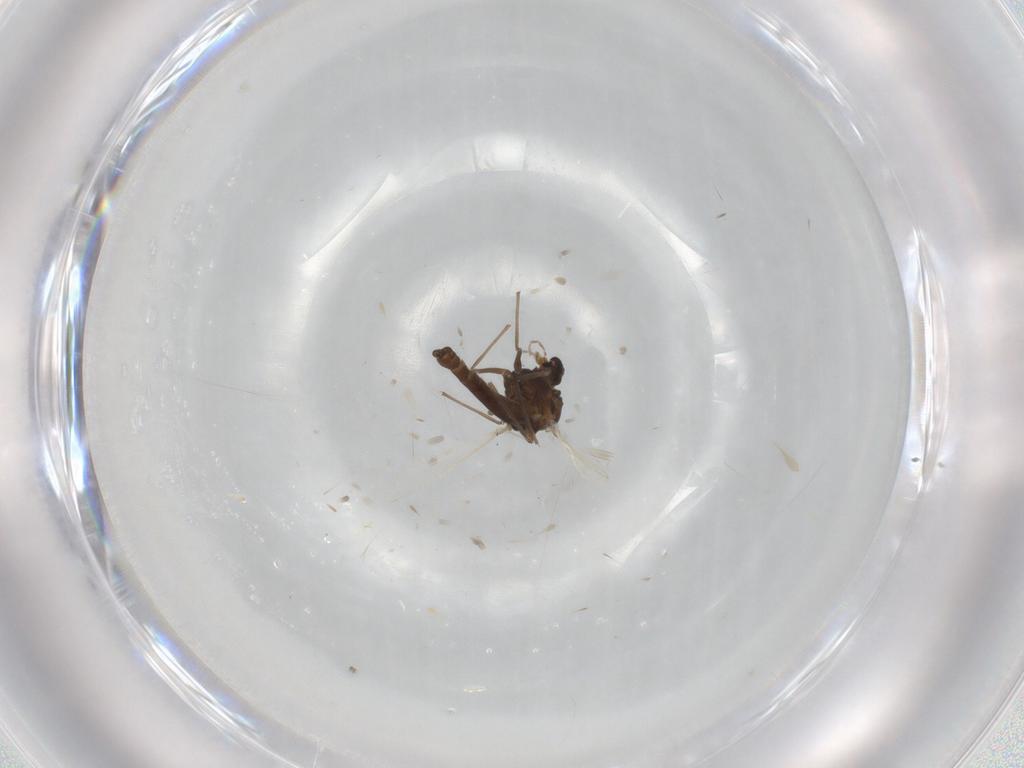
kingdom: Animalia
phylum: Arthropoda
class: Insecta
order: Diptera
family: Chironomidae
